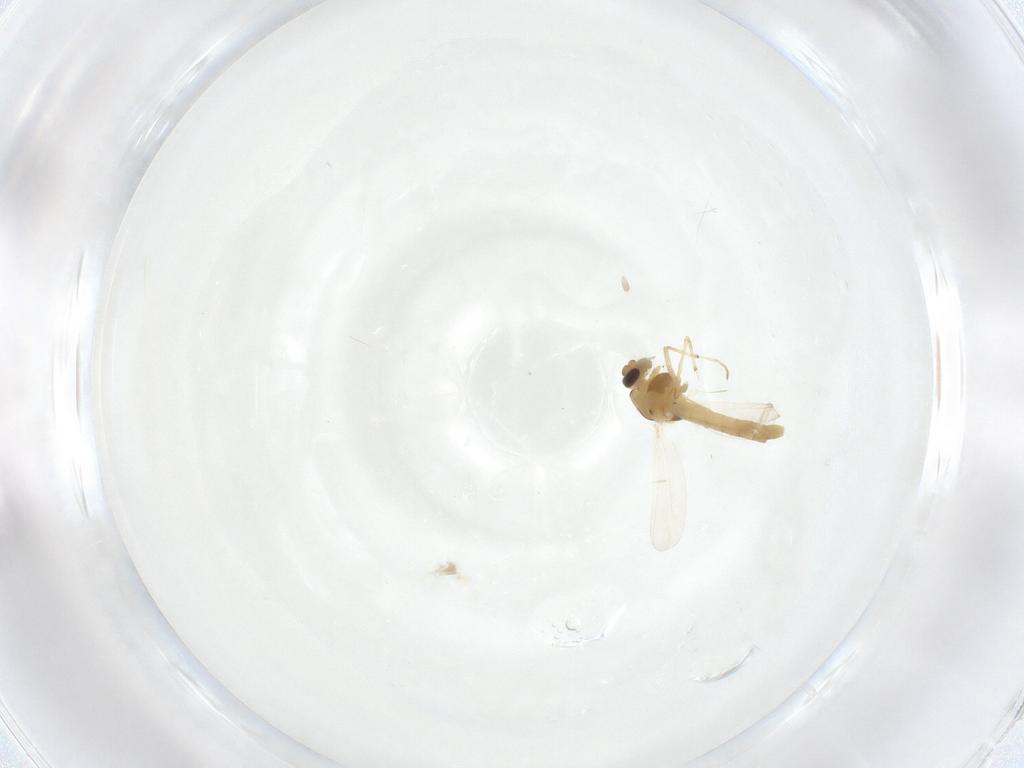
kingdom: Animalia
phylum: Arthropoda
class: Insecta
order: Diptera
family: Chironomidae
